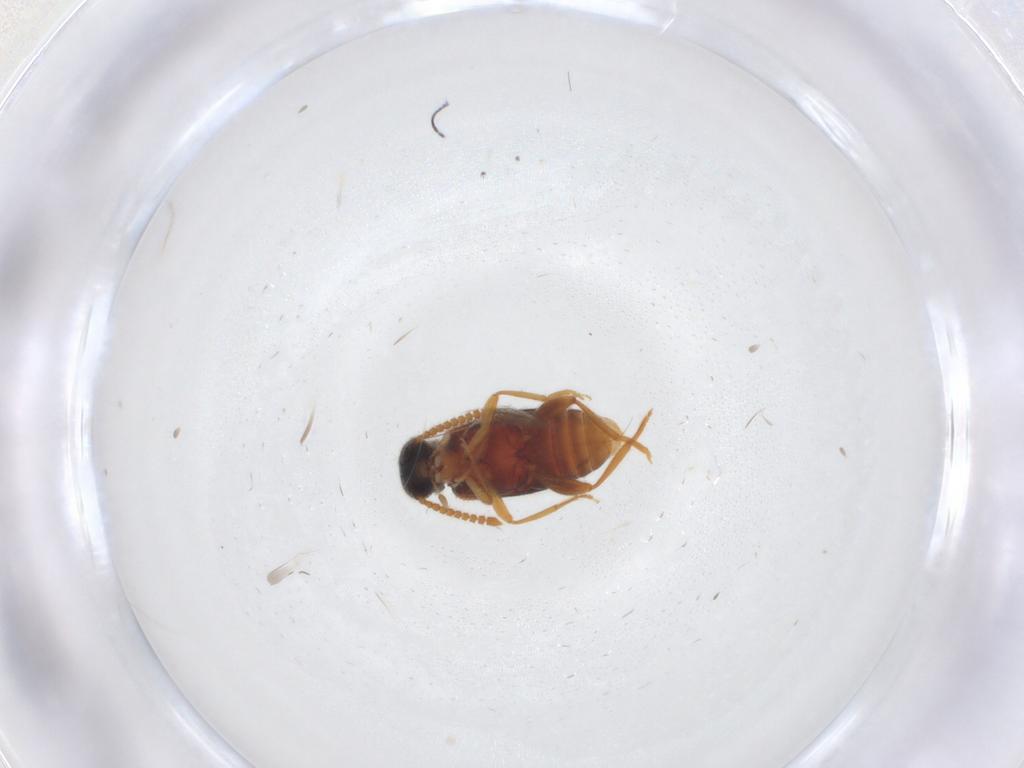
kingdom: Animalia
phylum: Arthropoda
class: Insecta
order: Coleoptera
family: Aderidae
